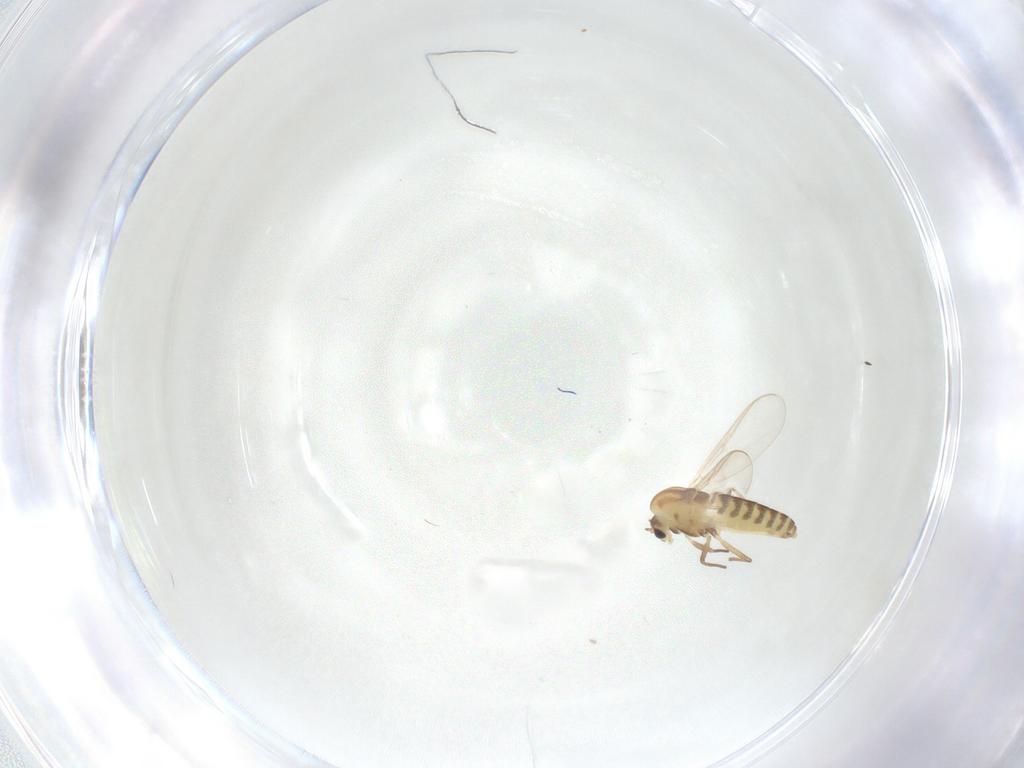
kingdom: Animalia
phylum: Arthropoda
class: Insecta
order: Diptera
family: Chironomidae
